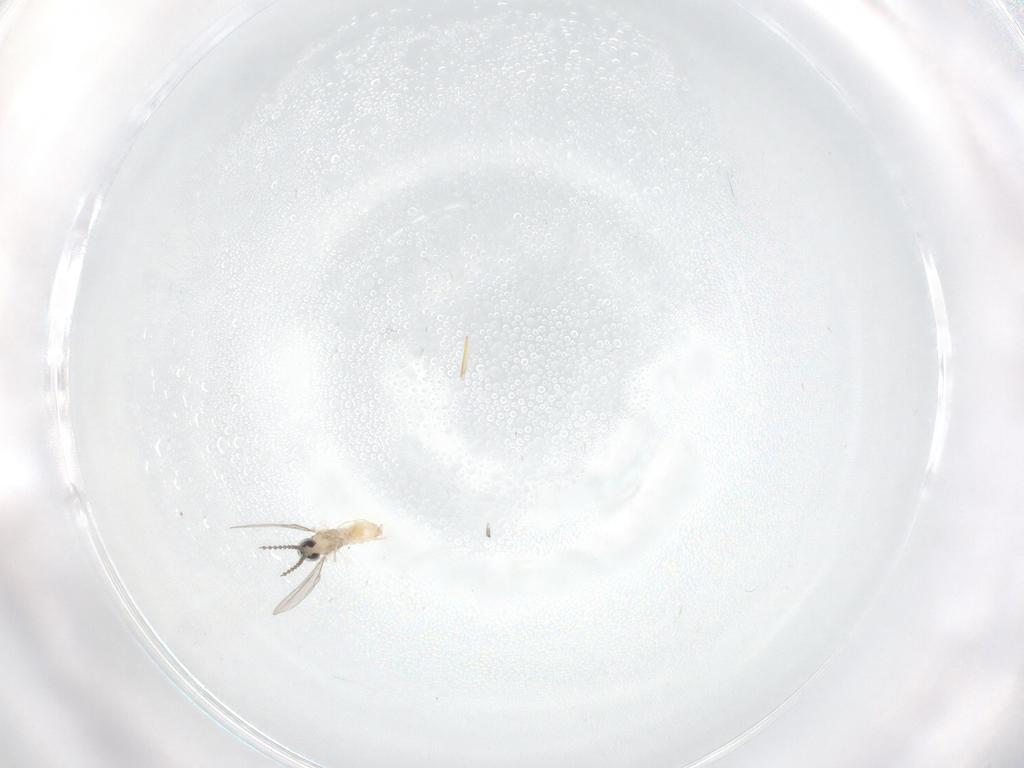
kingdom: Animalia
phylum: Arthropoda
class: Insecta
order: Diptera
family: Cecidomyiidae
